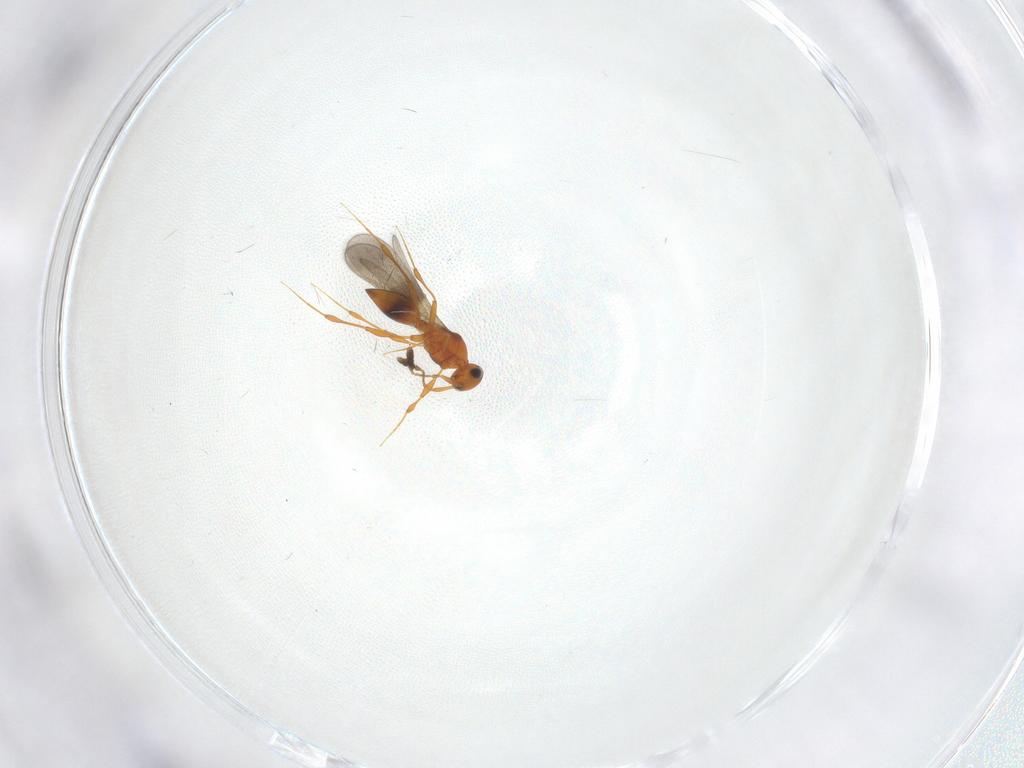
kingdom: Animalia
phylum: Arthropoda
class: Insecta
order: Hymenoptera
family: Platygastridae
